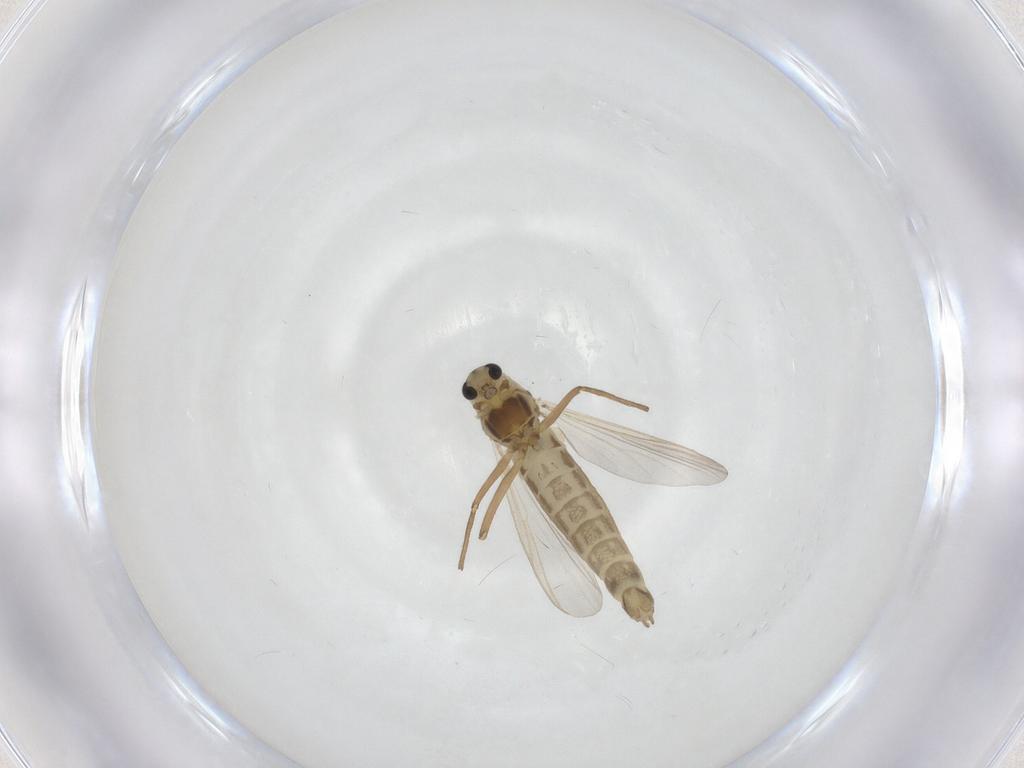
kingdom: Animalia
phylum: Arthropoda
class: Insecta
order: Diptera
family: Chironomidae
